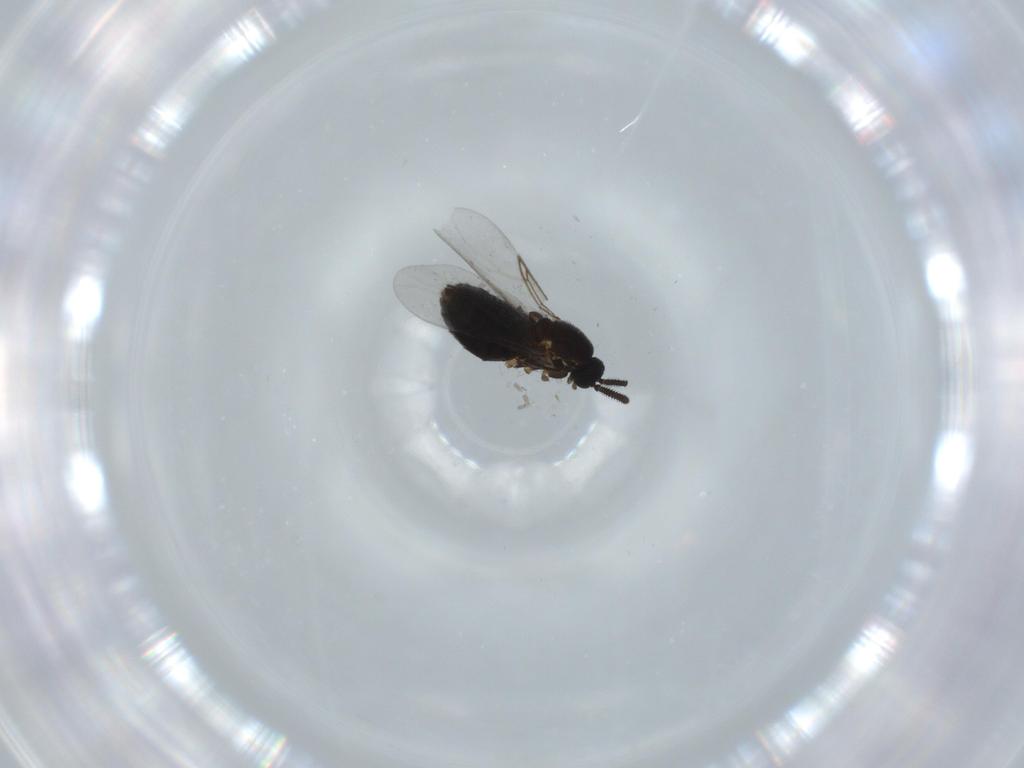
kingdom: Animalia
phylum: Arthropoda
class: Insecta
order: Diptera
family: Scatopsidae
